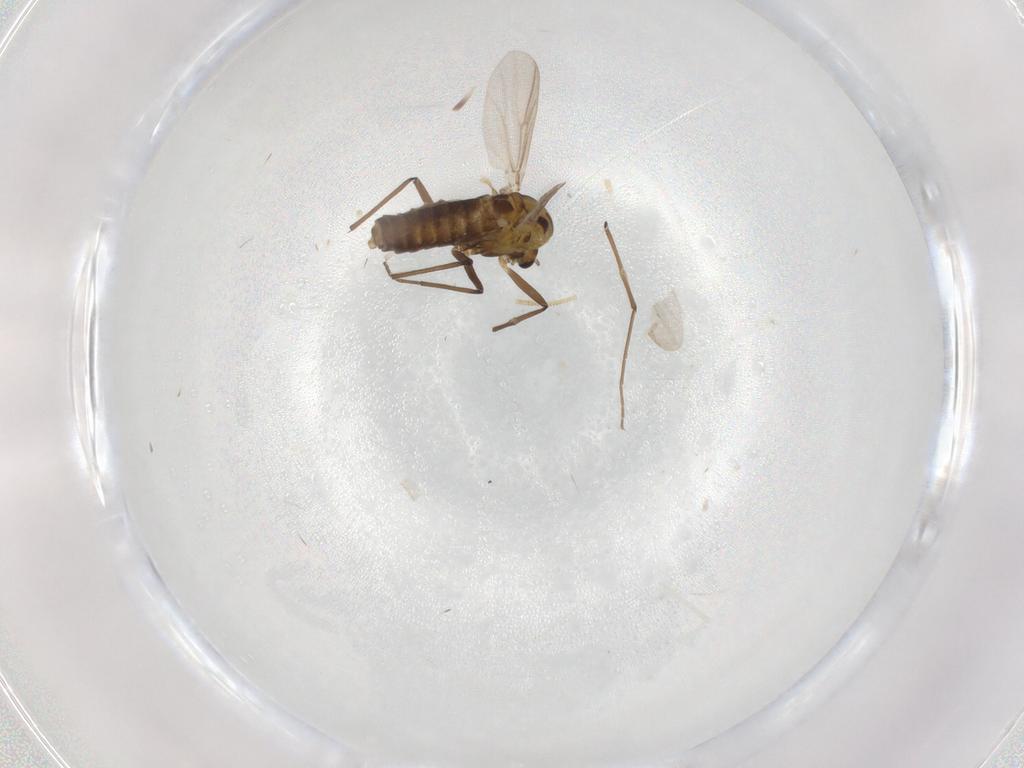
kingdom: Animalia
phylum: Arthropoda
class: Insecta
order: Diptera
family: Chironomidae
